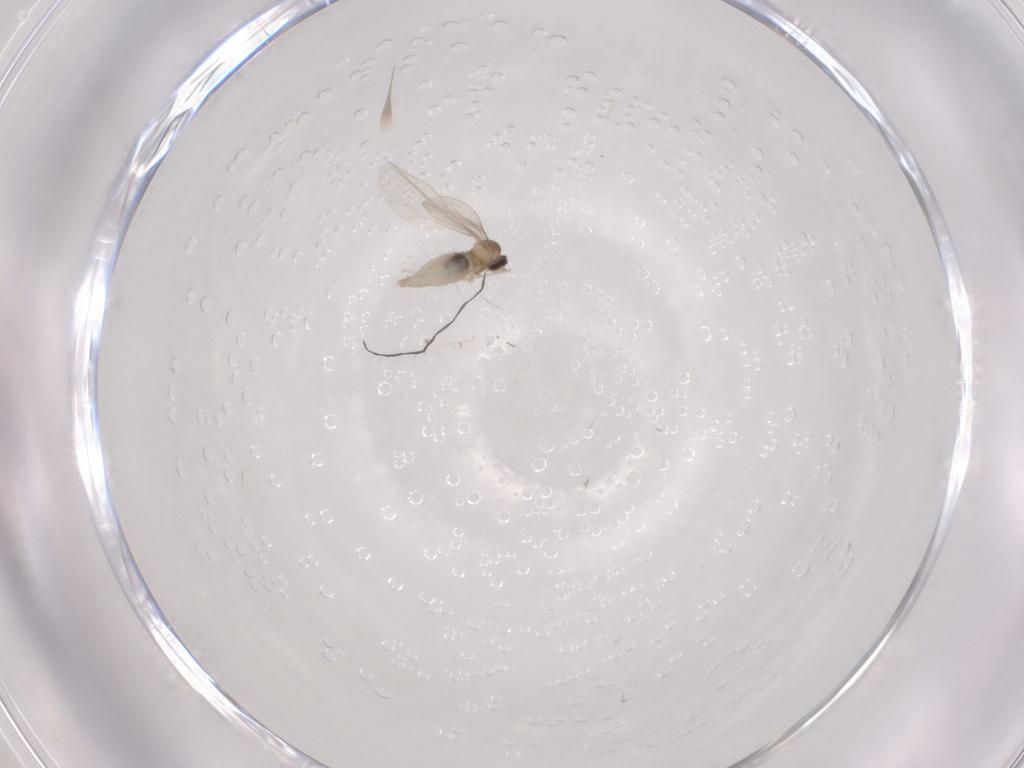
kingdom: Animalia
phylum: Arthropoda
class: Insecta
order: Diptera
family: Cecidomyiidae
